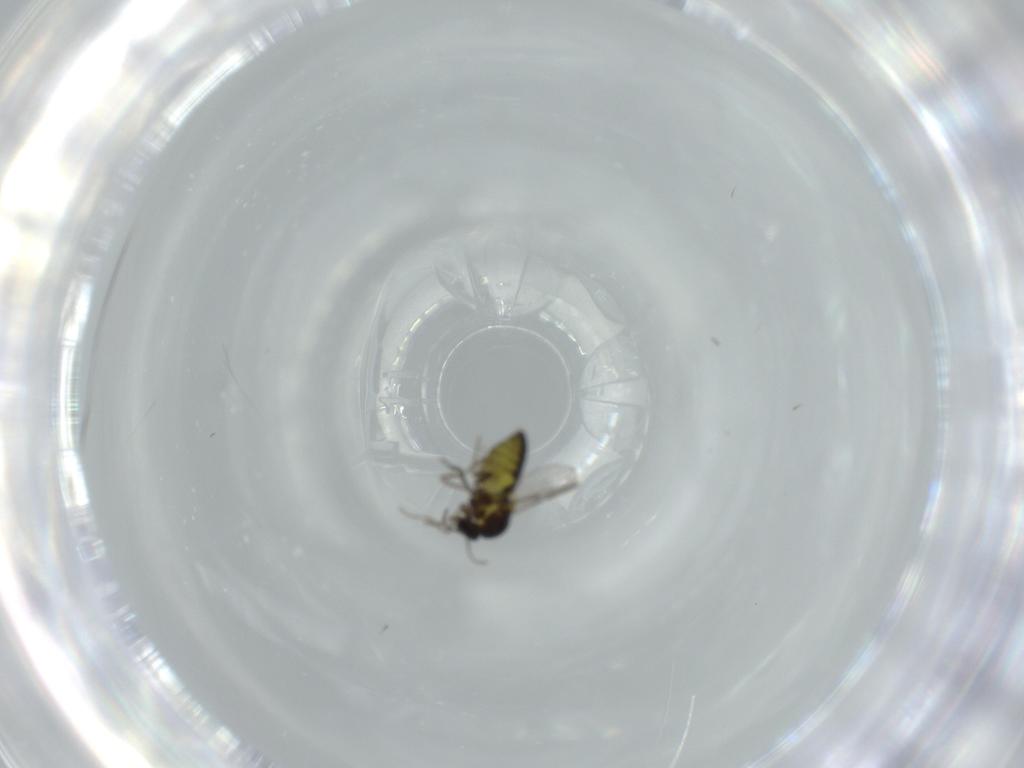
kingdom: Animalia
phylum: Arthropoda
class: Insecta
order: Diptera
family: Ceratopogonidae
